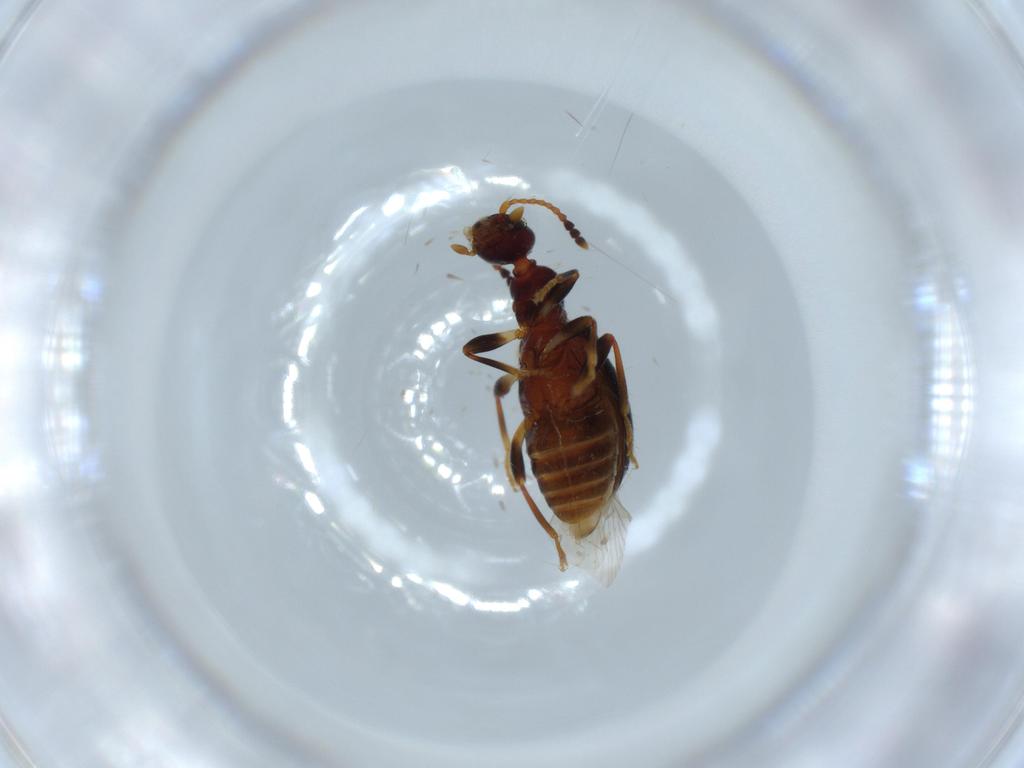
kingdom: Animalia
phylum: Arthropoda
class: Insecta
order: Coleoptera
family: Anthicidae
